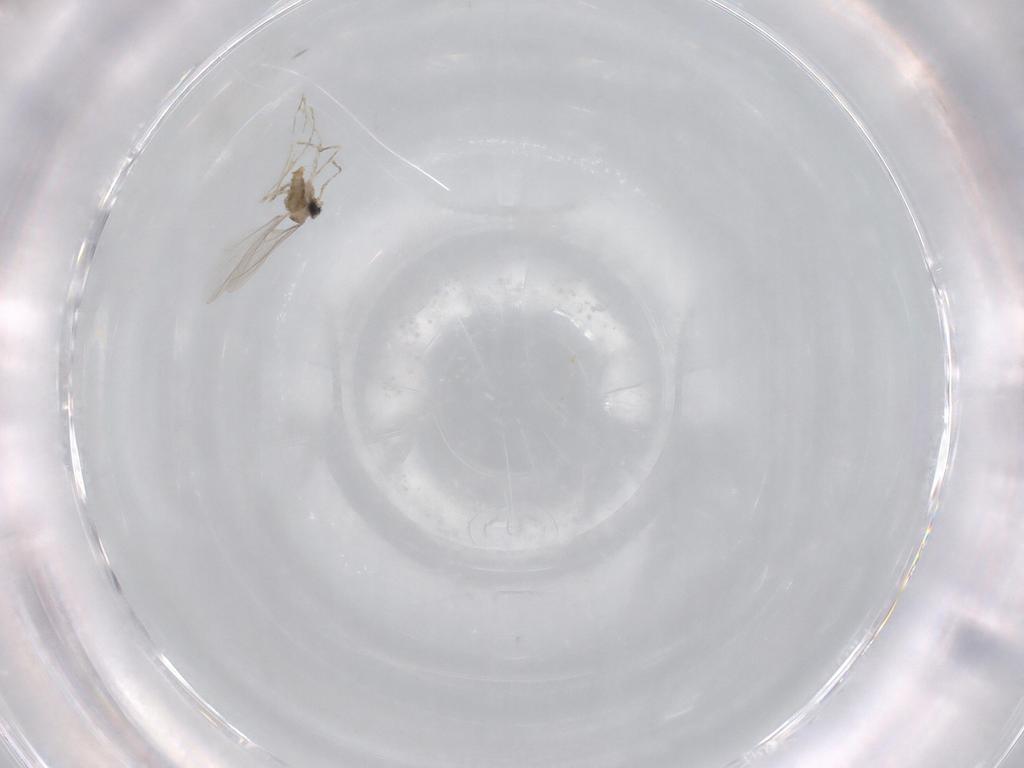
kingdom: Animalia
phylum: Arthropoda
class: Insecta
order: Diptera
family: Cecidomyiidae
